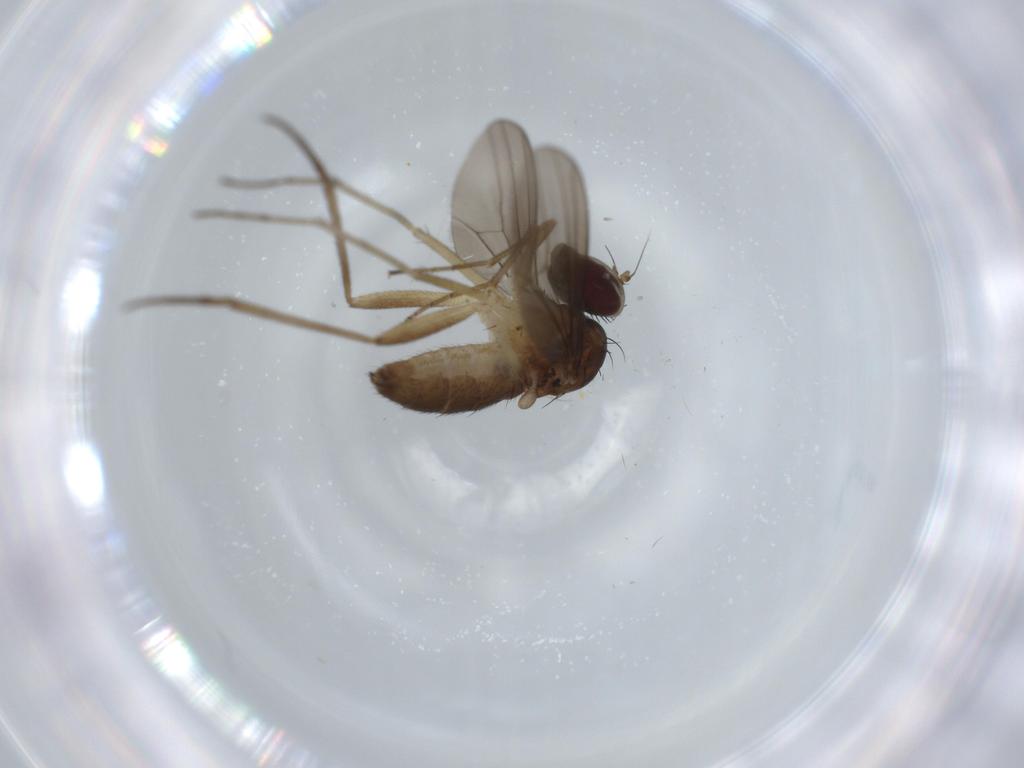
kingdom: Animalia
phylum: Arthropoda
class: Insecta
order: Diptera
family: Dolichopodidae
